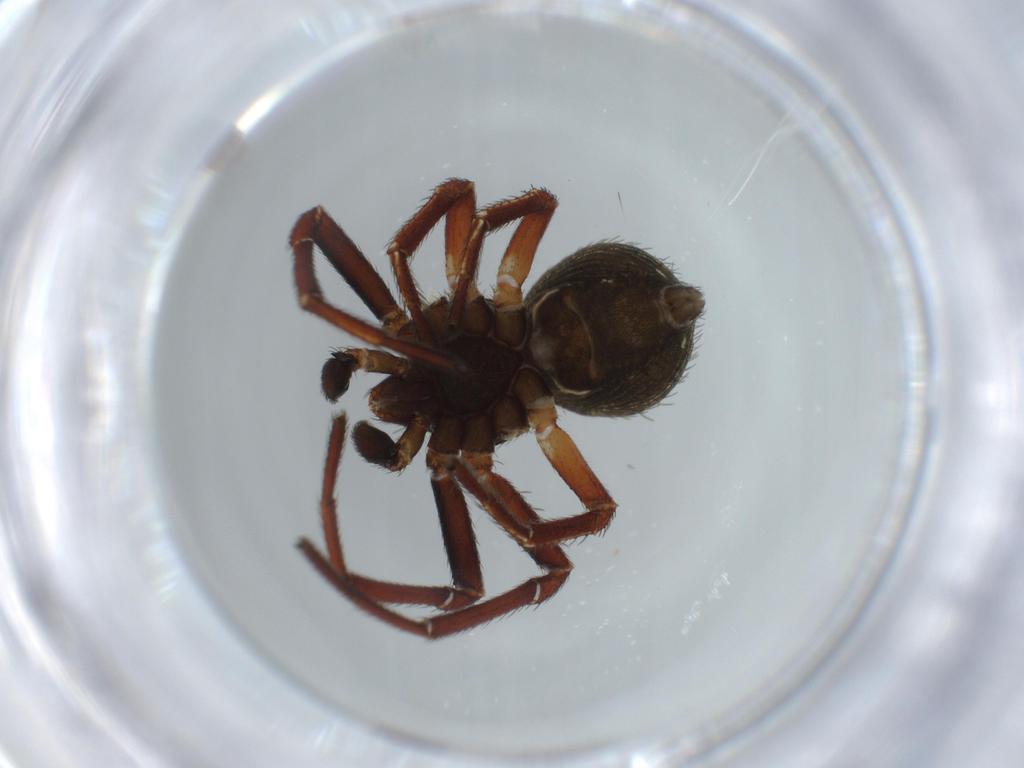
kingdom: Animalia
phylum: Arthropoda
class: Arachnida
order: Araneae
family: Thomisidae
